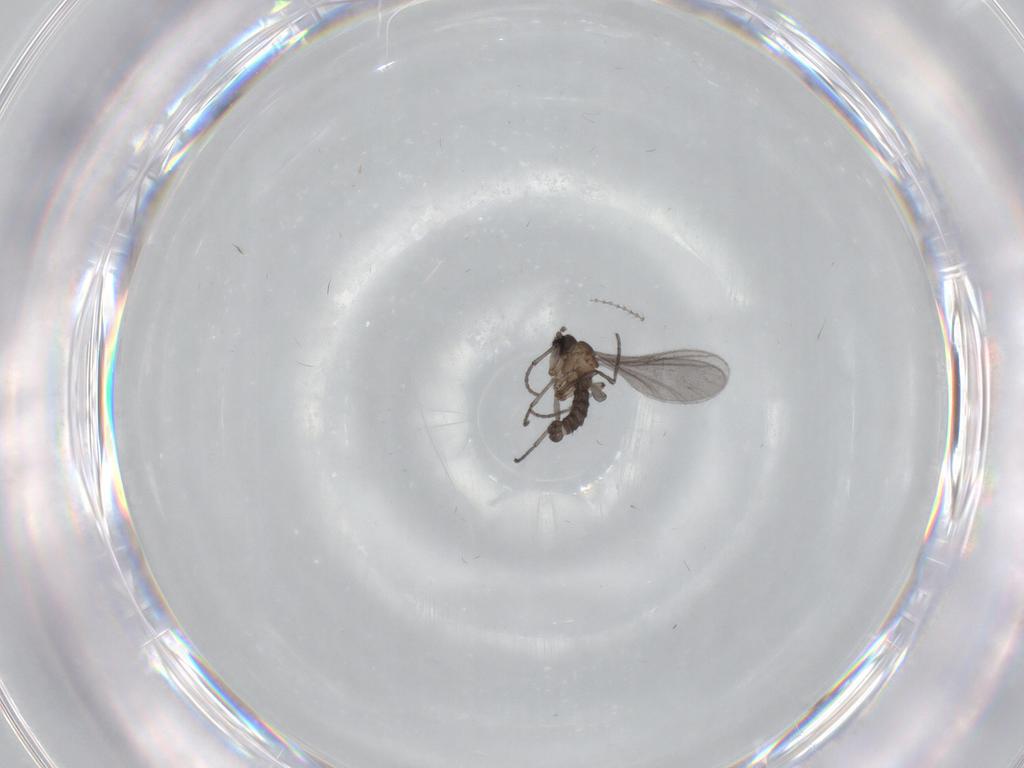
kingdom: Animalia
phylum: Arthropoda
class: Insecta
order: Diptera
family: Sciaridae
